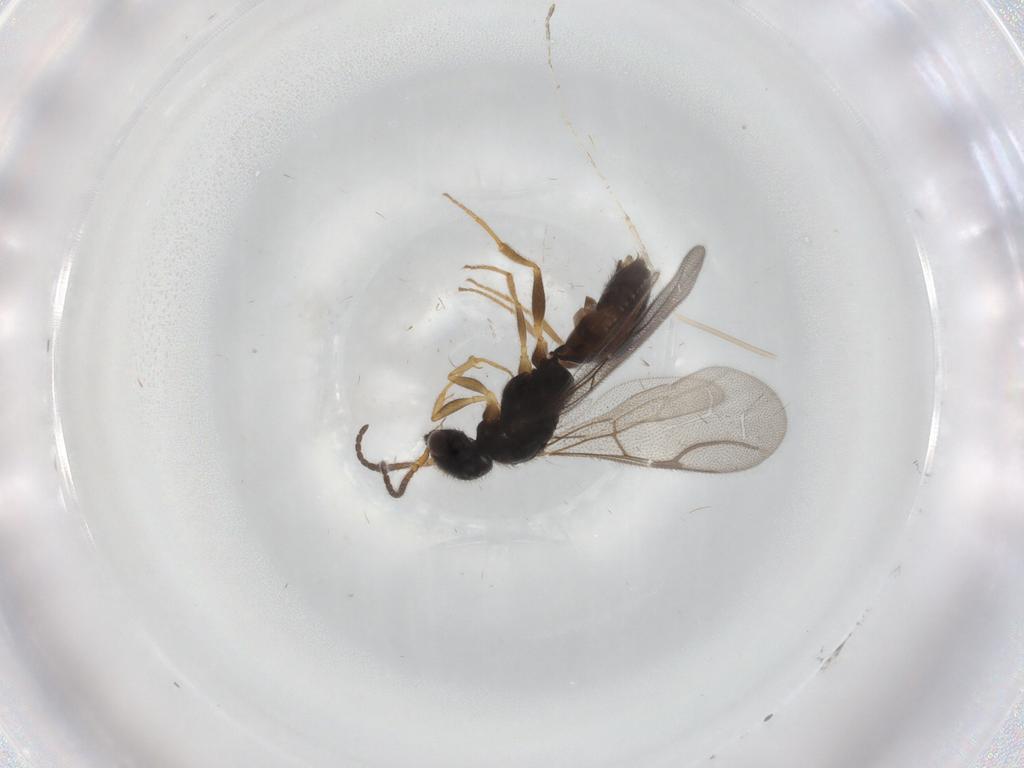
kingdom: Animalia
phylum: Arthropoda
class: Insecta
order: Hymenoptera
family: Bethylidae
